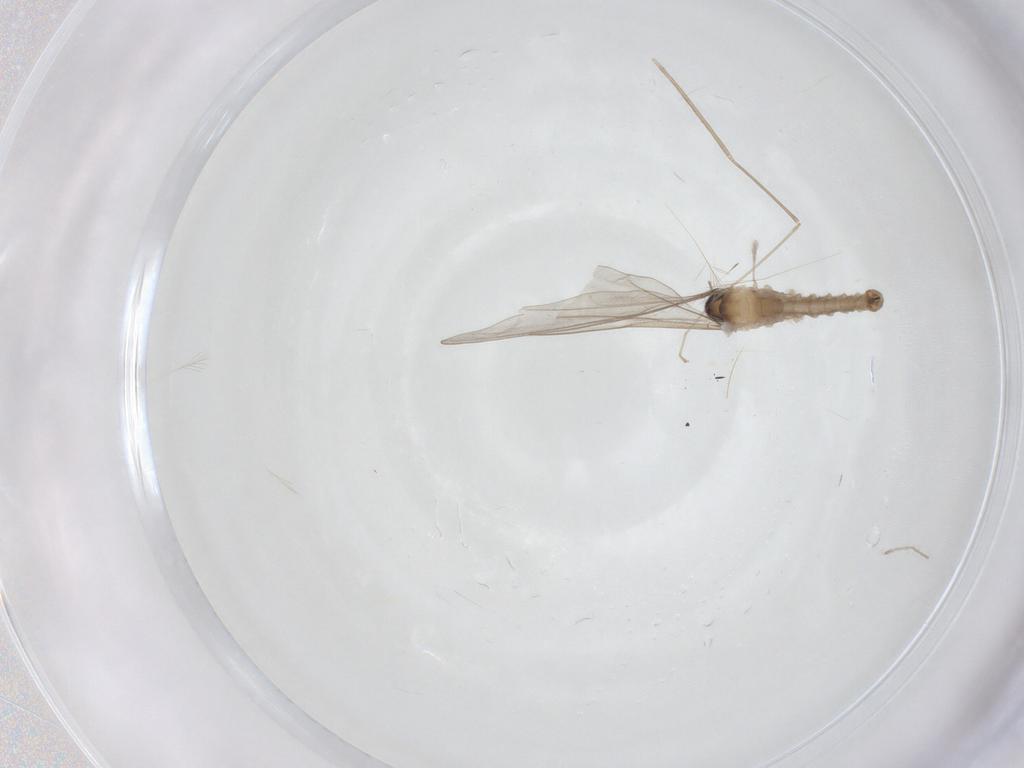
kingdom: Animalia
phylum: Arthropoda
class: Insecta
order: Diptera
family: Cecidomyiidae
